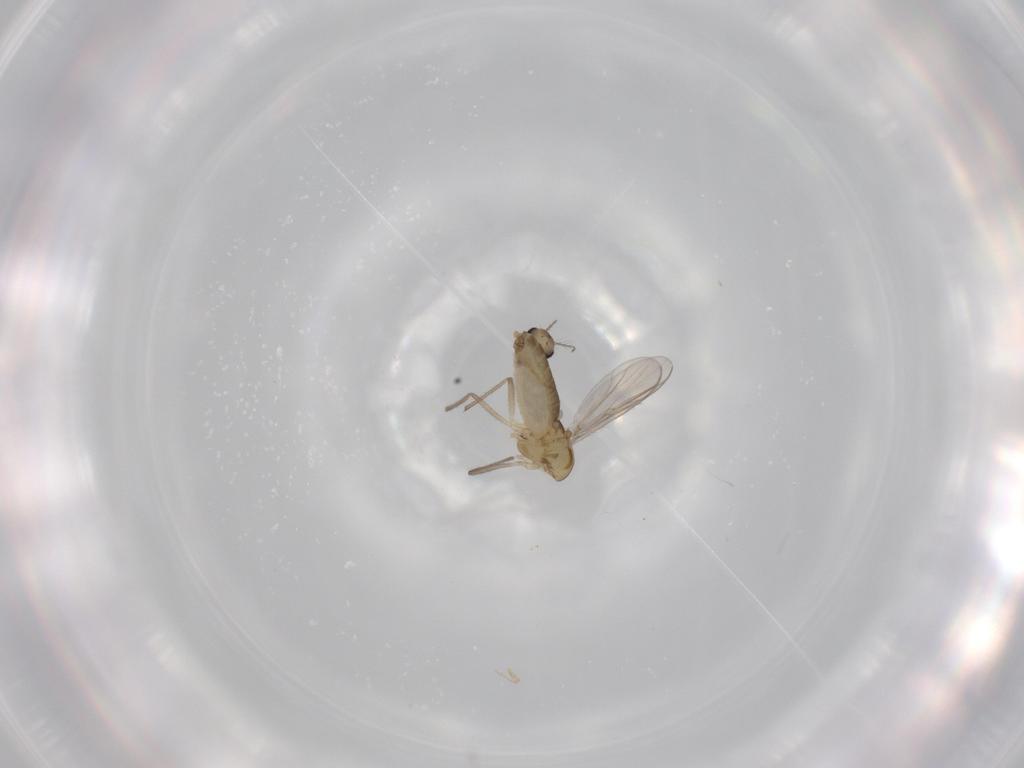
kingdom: Animalia
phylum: Arthropoda
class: Insecta
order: Diptera
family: Chironomidae
